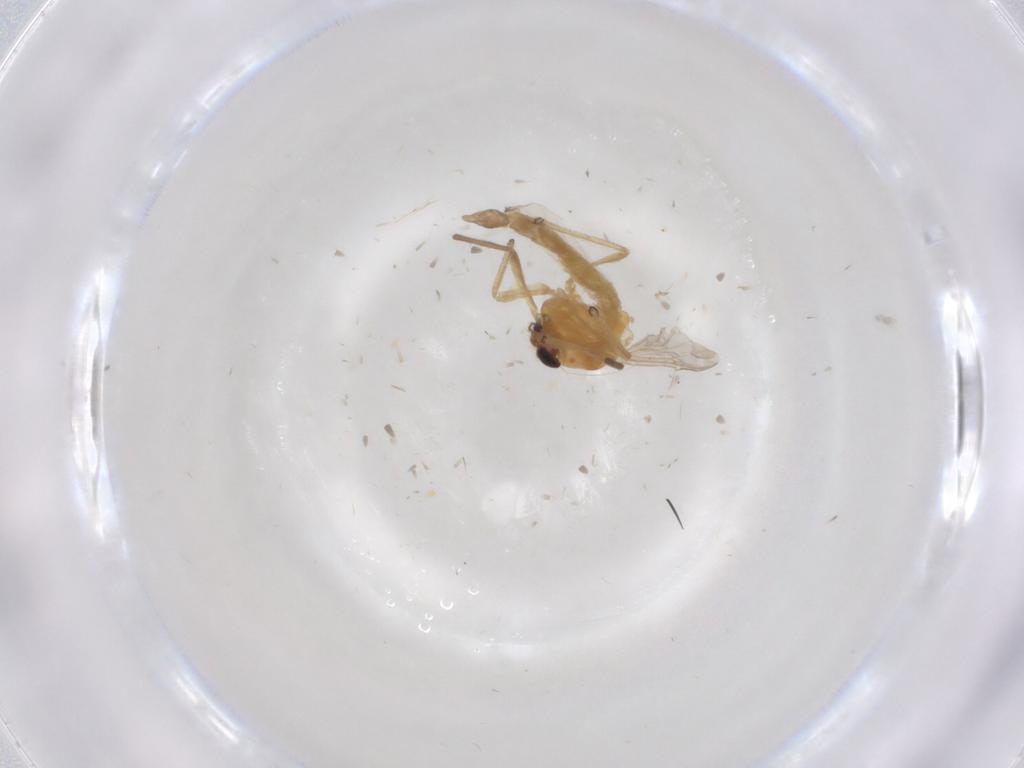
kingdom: Animalia
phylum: Arthropoda
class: Insecta
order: Diptera
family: Chironomidae
